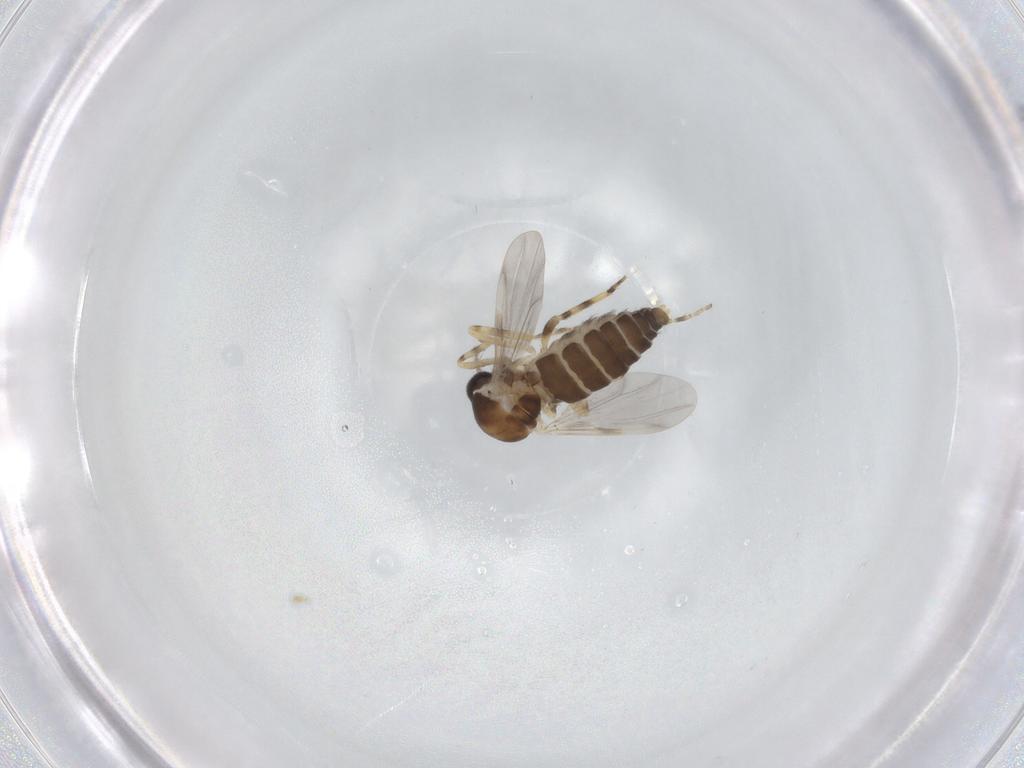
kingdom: Animalia
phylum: Arthropoda
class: Insecta
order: Diptera
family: Ceratopogonidae
